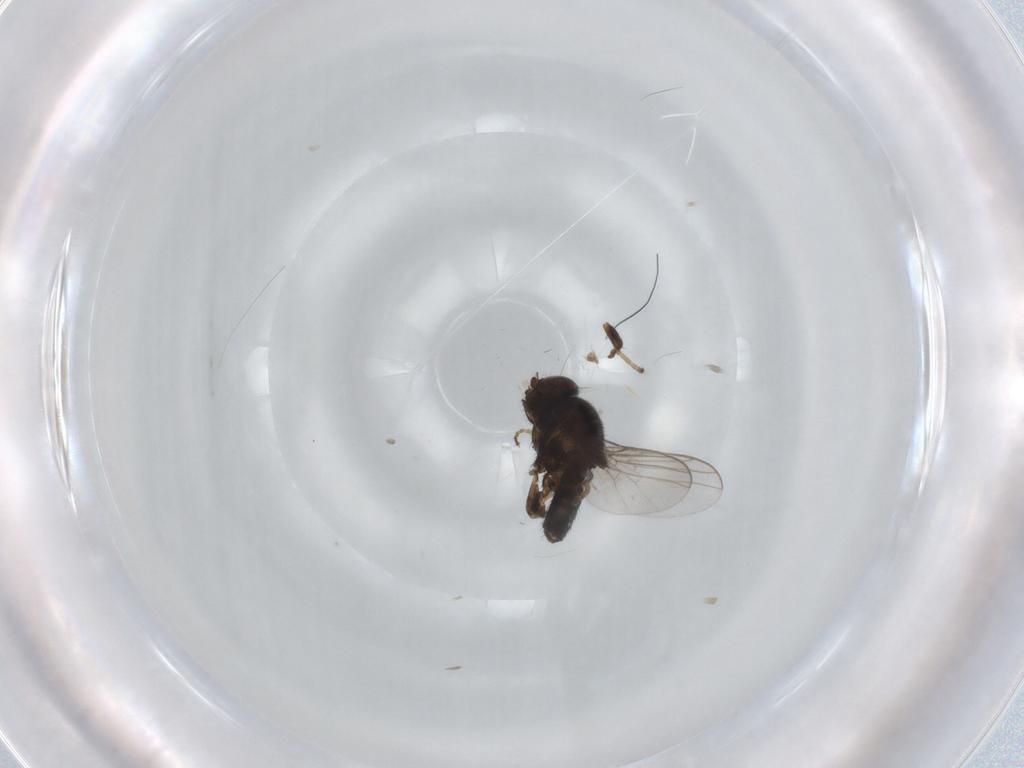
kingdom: Animalia
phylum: Arthropoda
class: Insecta
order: Diptera
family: Chloropidae
